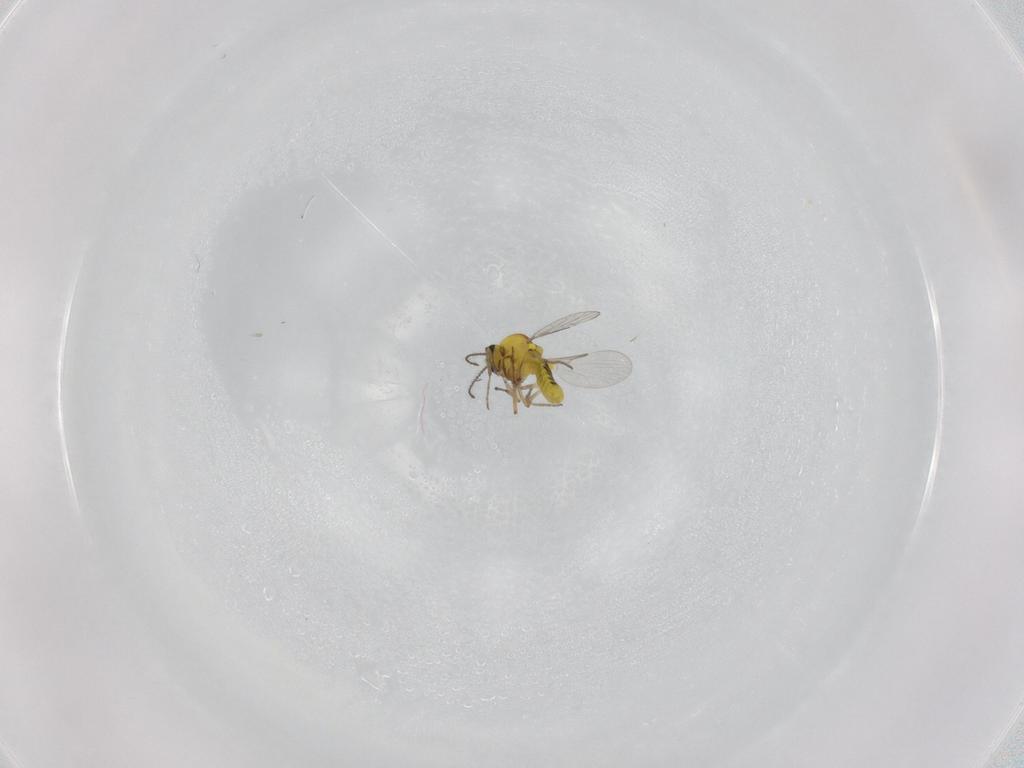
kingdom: Animalia
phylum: Arthropoda
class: Insecta
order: Diptera
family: Ceratopogonidae
